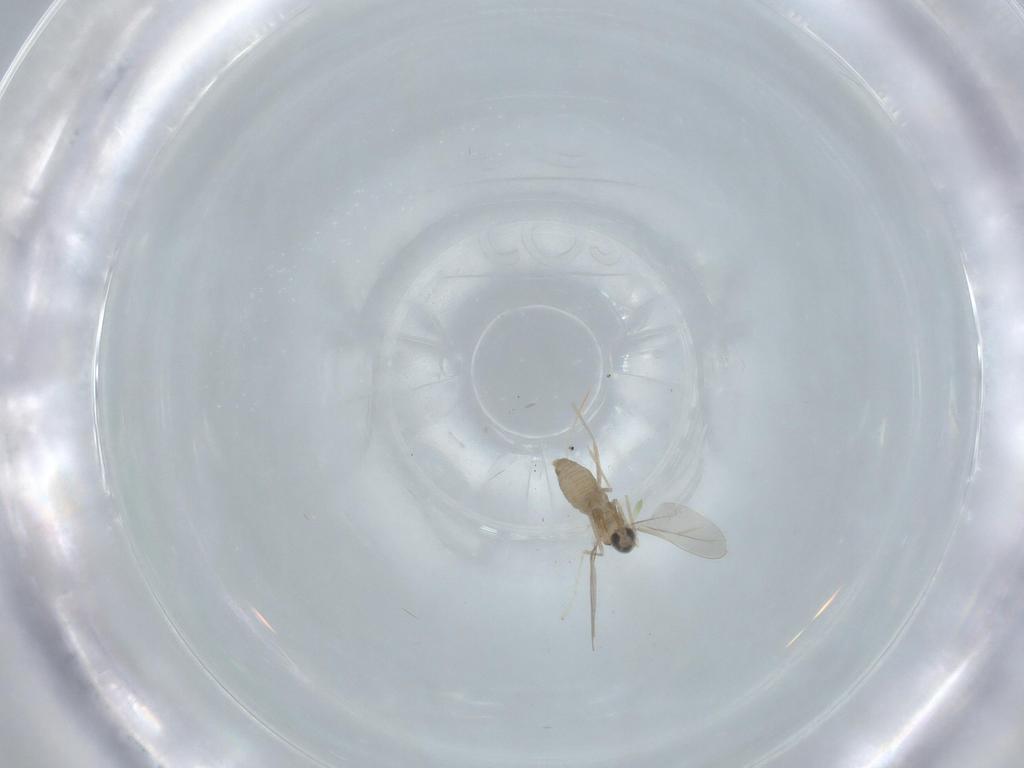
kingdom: Animalia
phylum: Arthropoda
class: Insecta
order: Diptera
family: Cecidomyiidae
